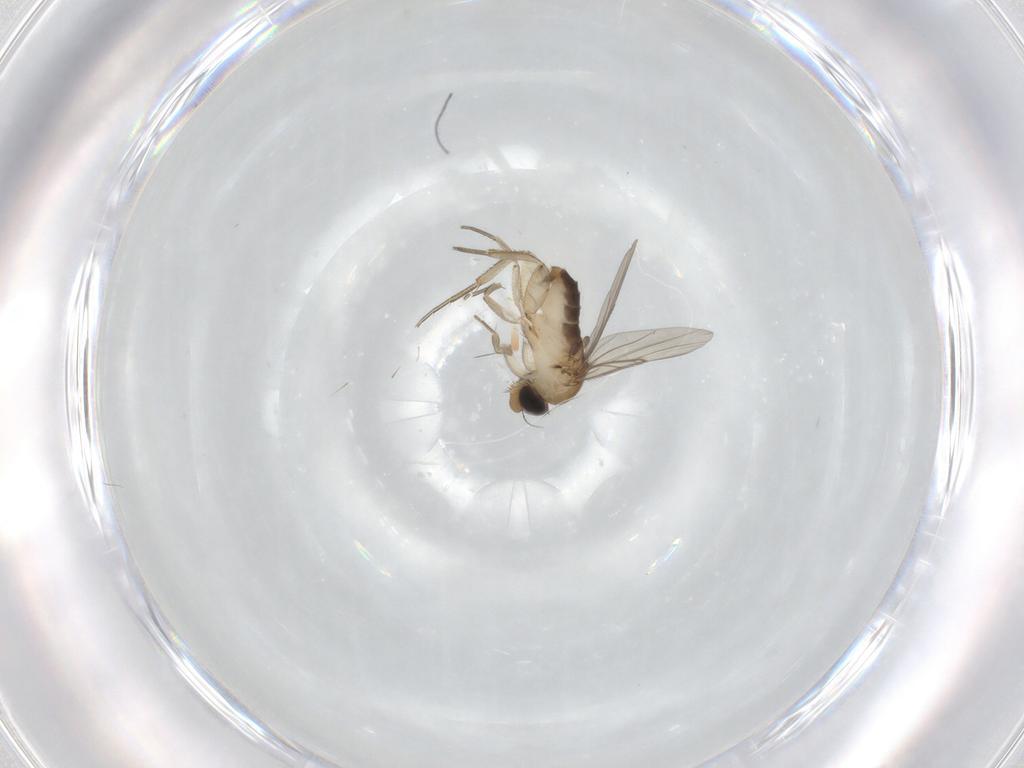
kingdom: Animalia
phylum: Arthropoda
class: Insecta
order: Diptera
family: Phoridae
